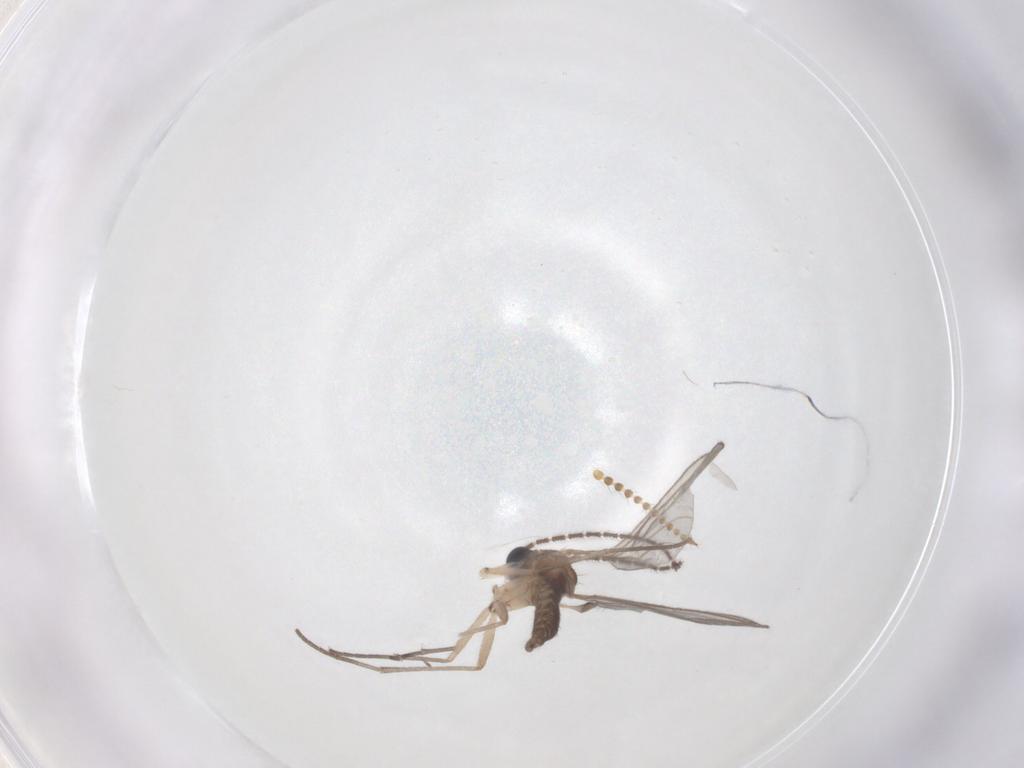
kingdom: Animalia
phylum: Arthropoda
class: Insecta
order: Diptera
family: Limoniidae
